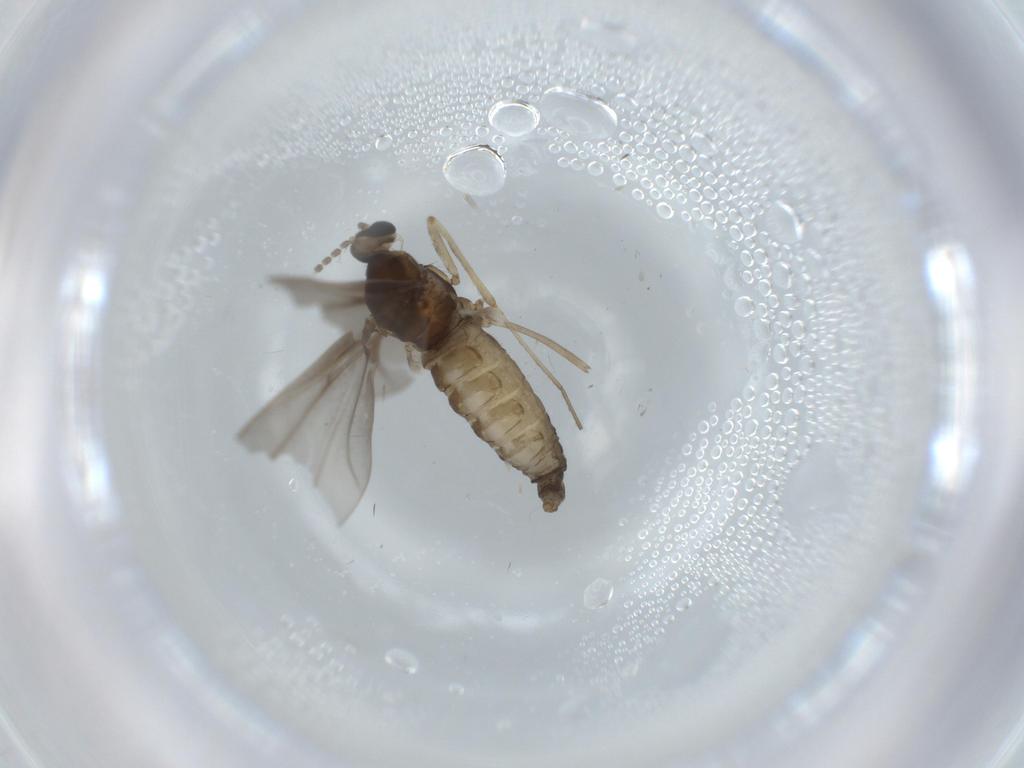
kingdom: Animalia
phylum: Arthropoda
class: Insecta
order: Diptera
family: Cecidomyiidae
